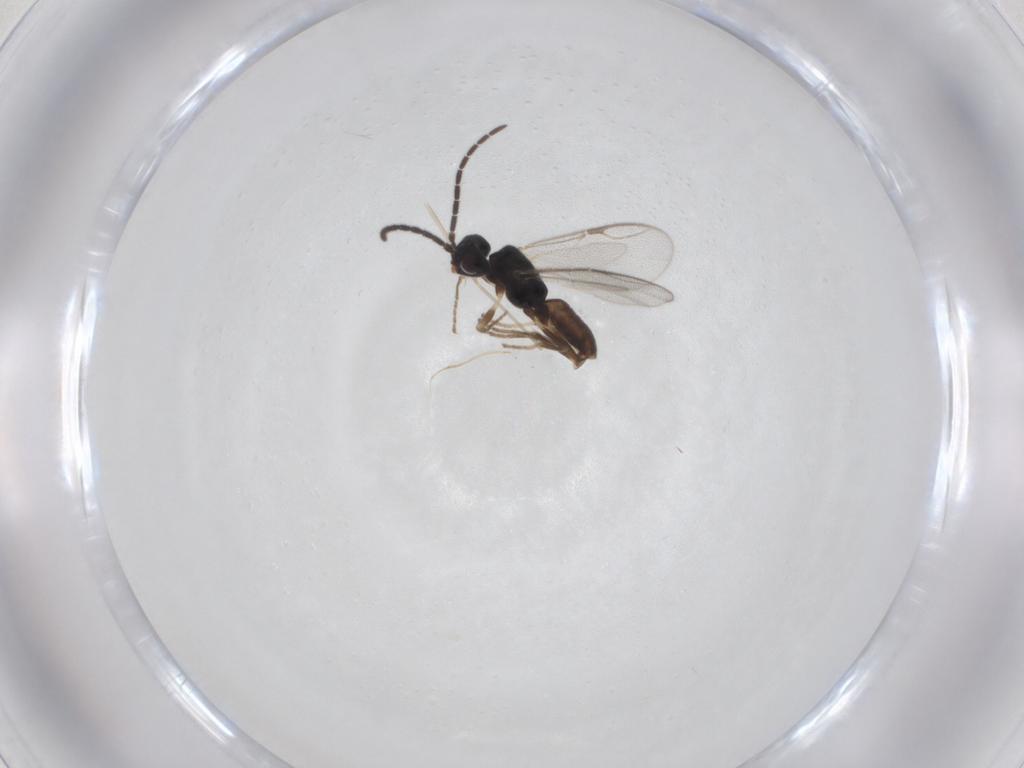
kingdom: Animalia
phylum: Arthropoda
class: Insecta
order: Hymenoptera
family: Dryinidae
